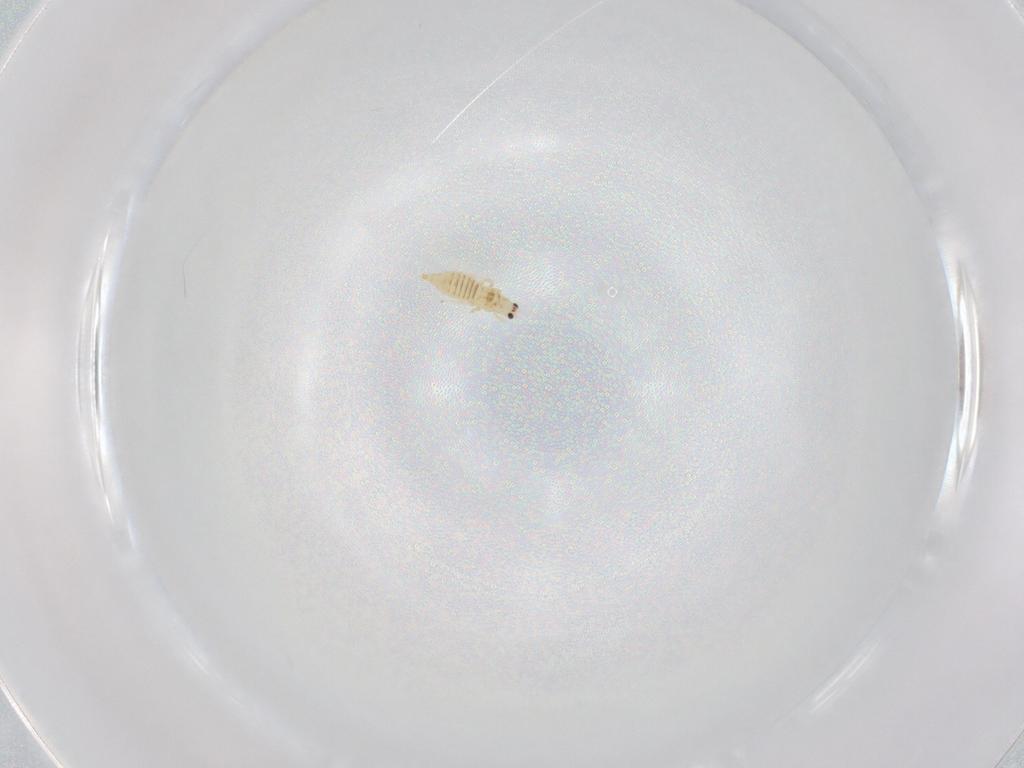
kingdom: Animalia
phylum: Arthropoda
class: Insecta
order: Thysanoptera
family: Thripidae
